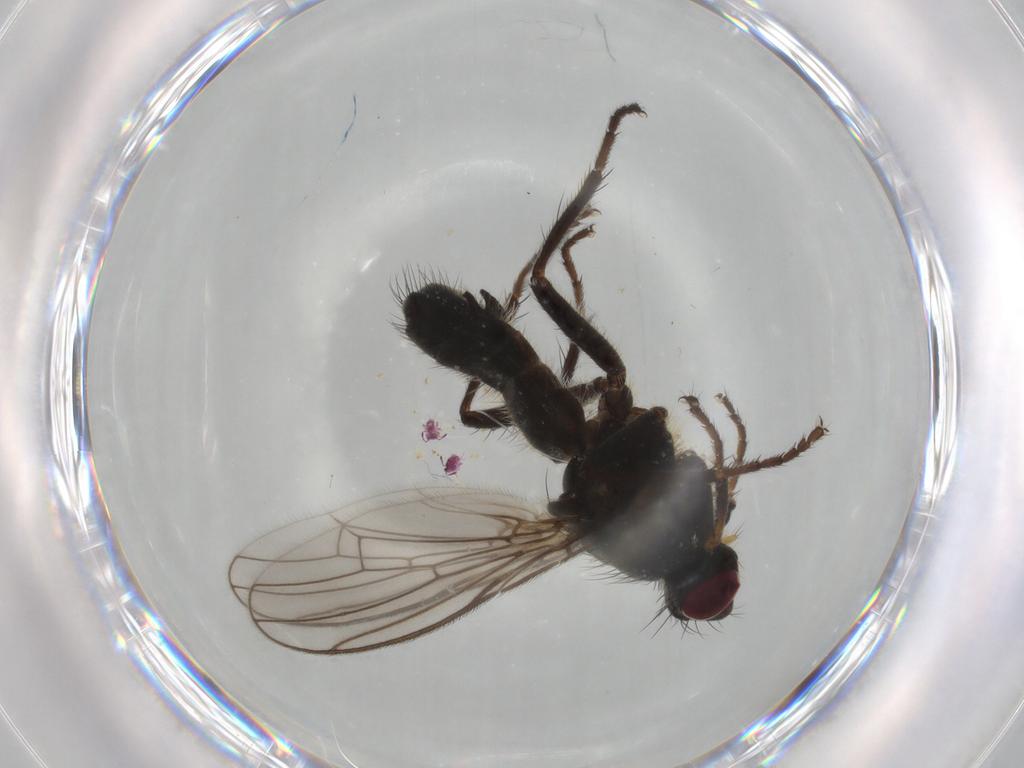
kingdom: Animalia
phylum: Arthropoda
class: Insecta
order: Diptera
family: Scathophagidae
